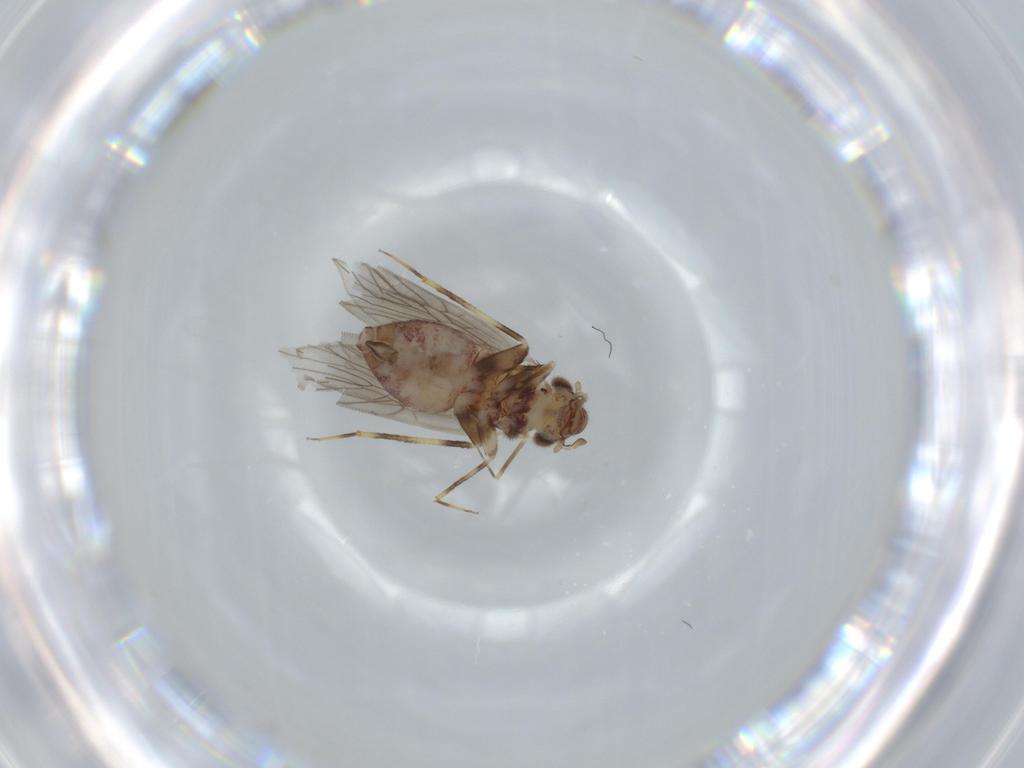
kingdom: Animalia
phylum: Arthropoda
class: Insecta
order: Psocodea
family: Lepidopsocidae
